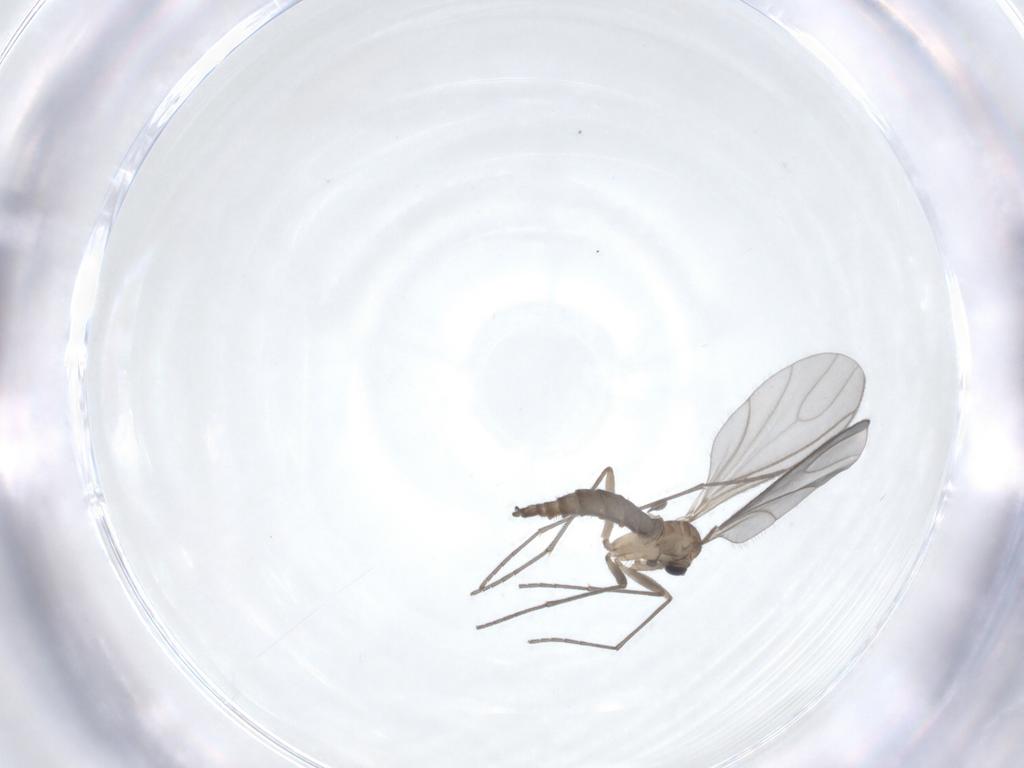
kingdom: Animalia
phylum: Arthropoda
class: Insecta
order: Diptera
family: Sciaridae
